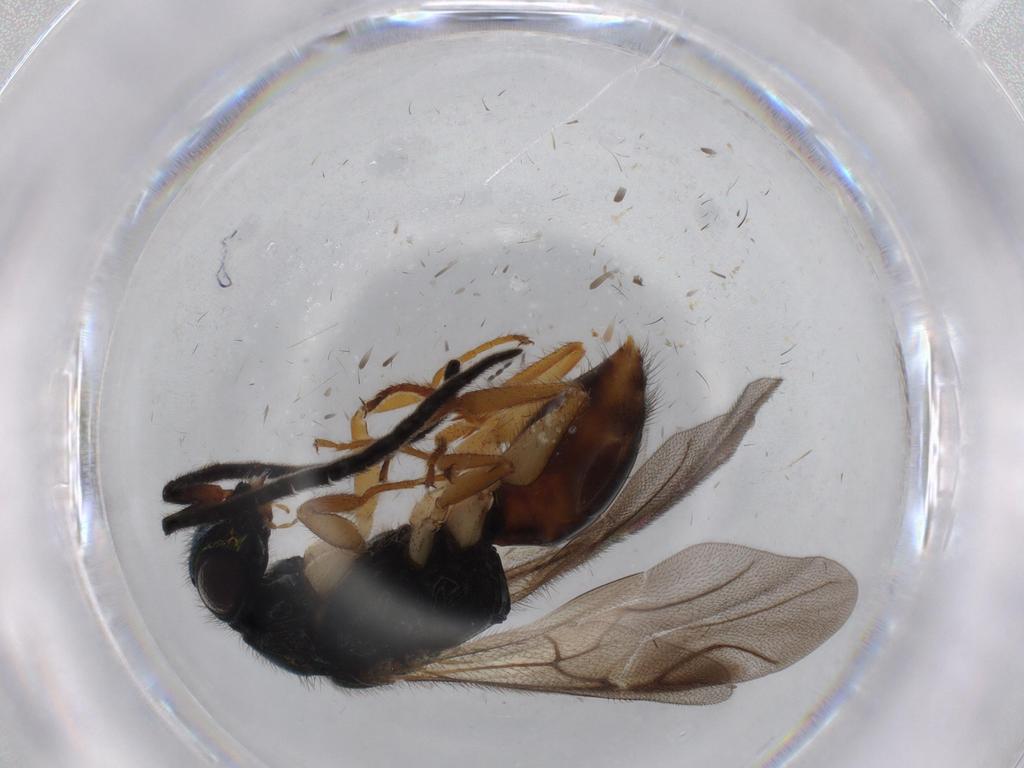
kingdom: Animalia
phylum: Arthropoda
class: Insecta
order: Hymenoptera
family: Chrysididae
